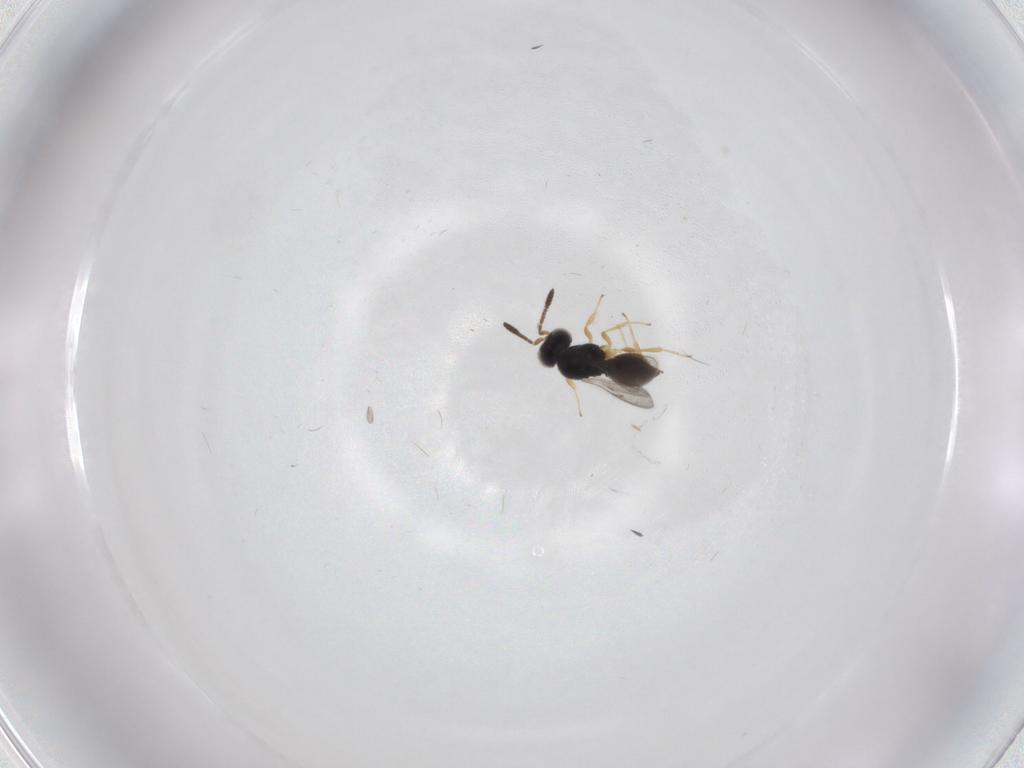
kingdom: Animalia
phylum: Arthropoda
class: Insecta
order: Hymenoptera
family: Scelionidae
